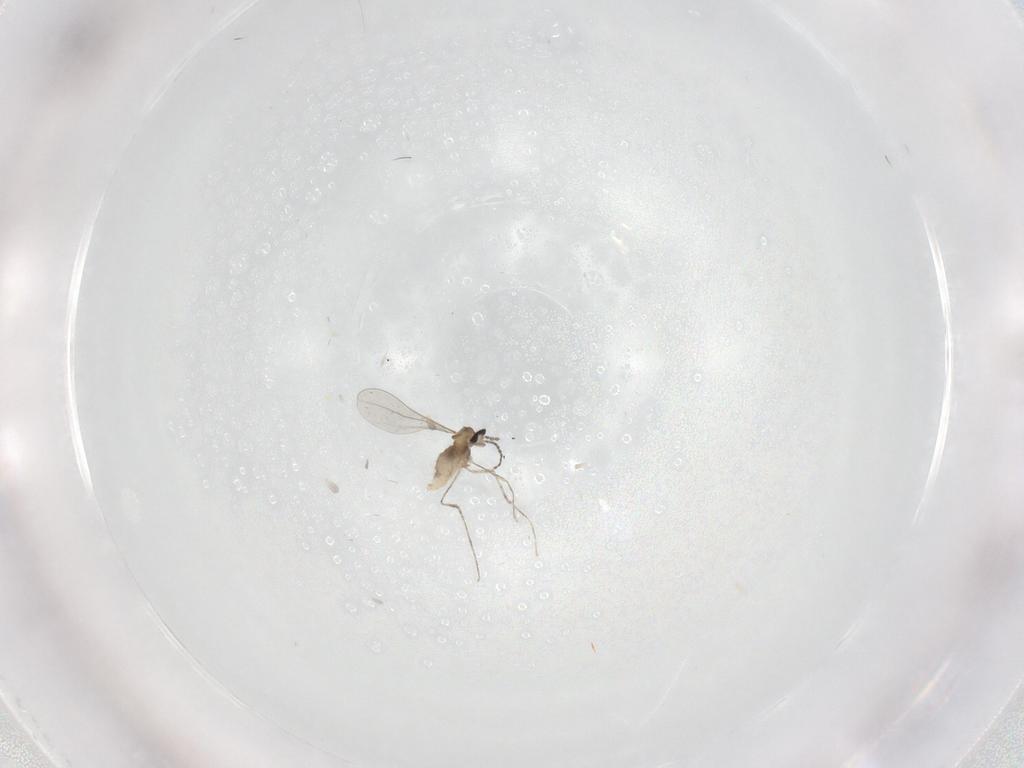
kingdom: Animalia
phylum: Arthropoda
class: Insecta
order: Diptera
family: Cecidomyiidae
